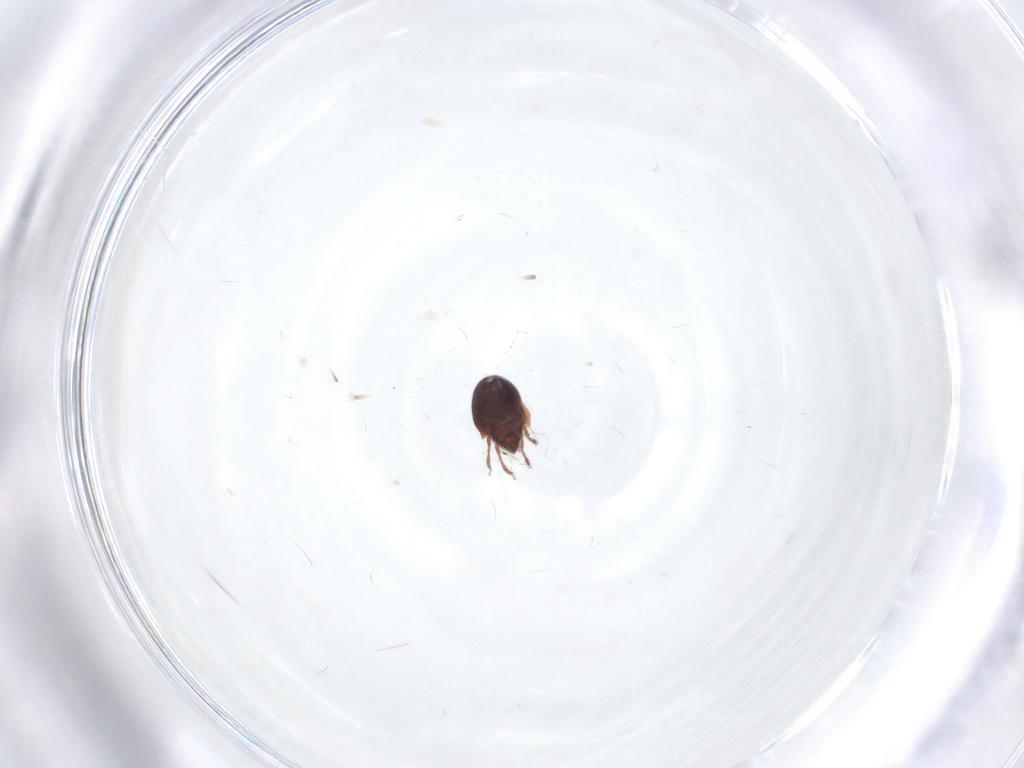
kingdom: Animalia
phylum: Arthropoda
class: Arachnida
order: Sarcoptiformes
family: Ceratozetidae
